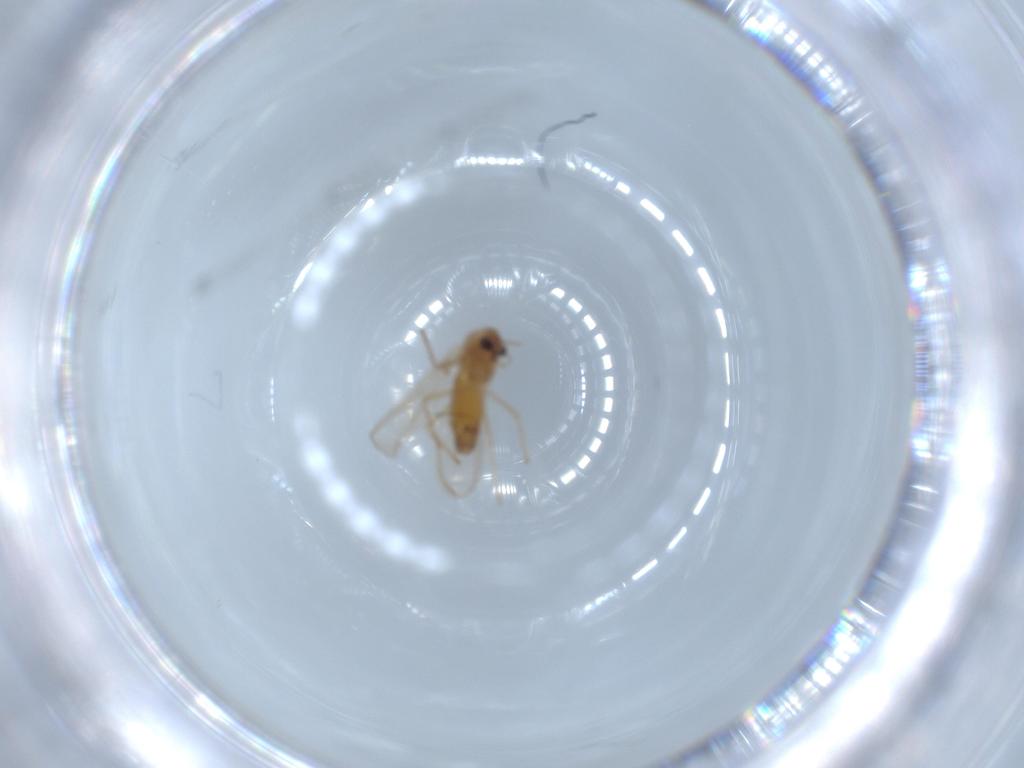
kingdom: Animalia
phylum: Arthropoda
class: Insecta
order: Diptera
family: Chironomidae
